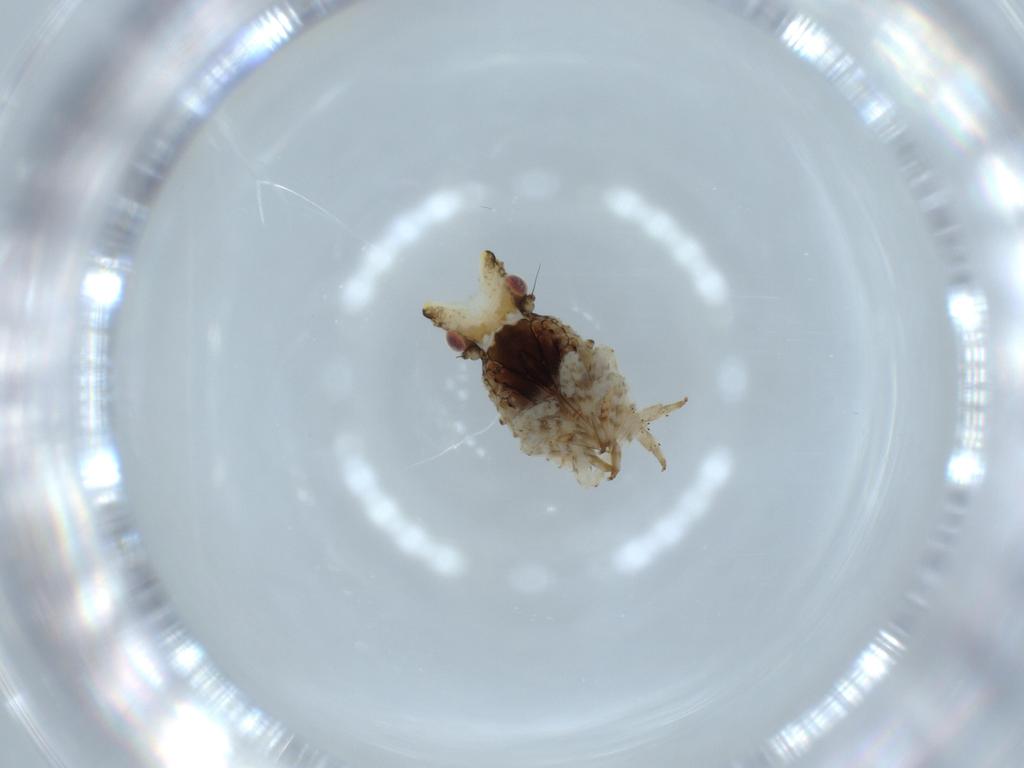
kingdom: Animalia
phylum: Arthropoda
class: Insecta
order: Hemiptera
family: Fulgoridae
